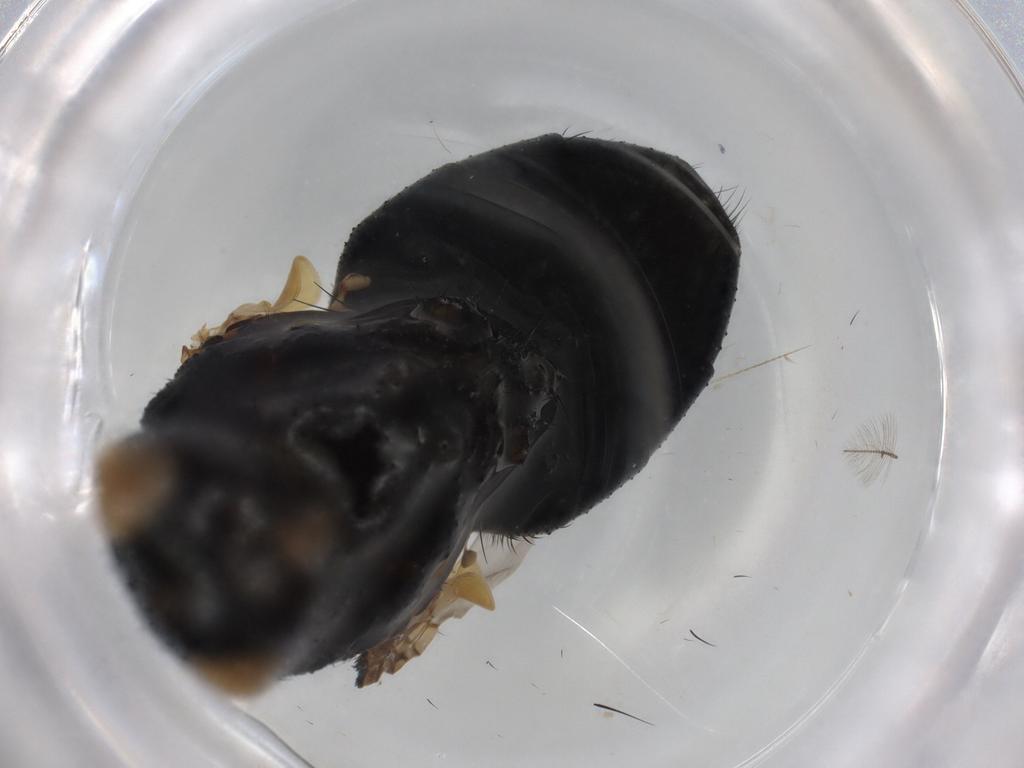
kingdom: Animalia
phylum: Arthropoda
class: Insecta
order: Diptera
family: Tachinidae
